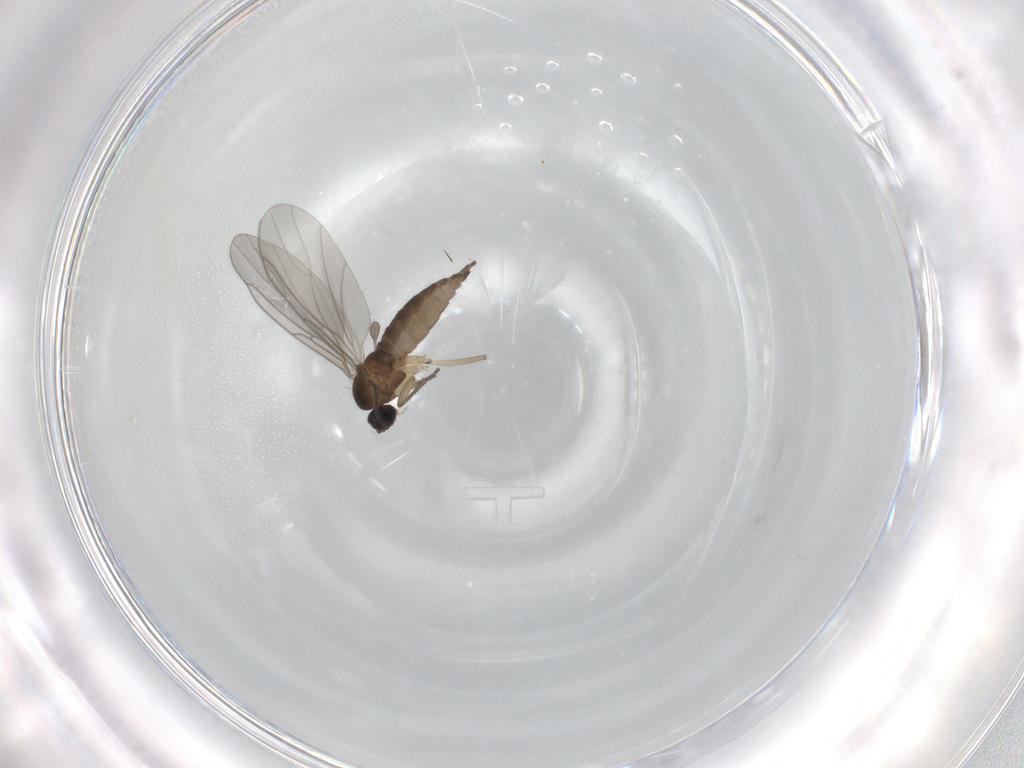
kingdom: Animalia
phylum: Arthropoda
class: Insecta
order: Diptera
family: Sciaridae
